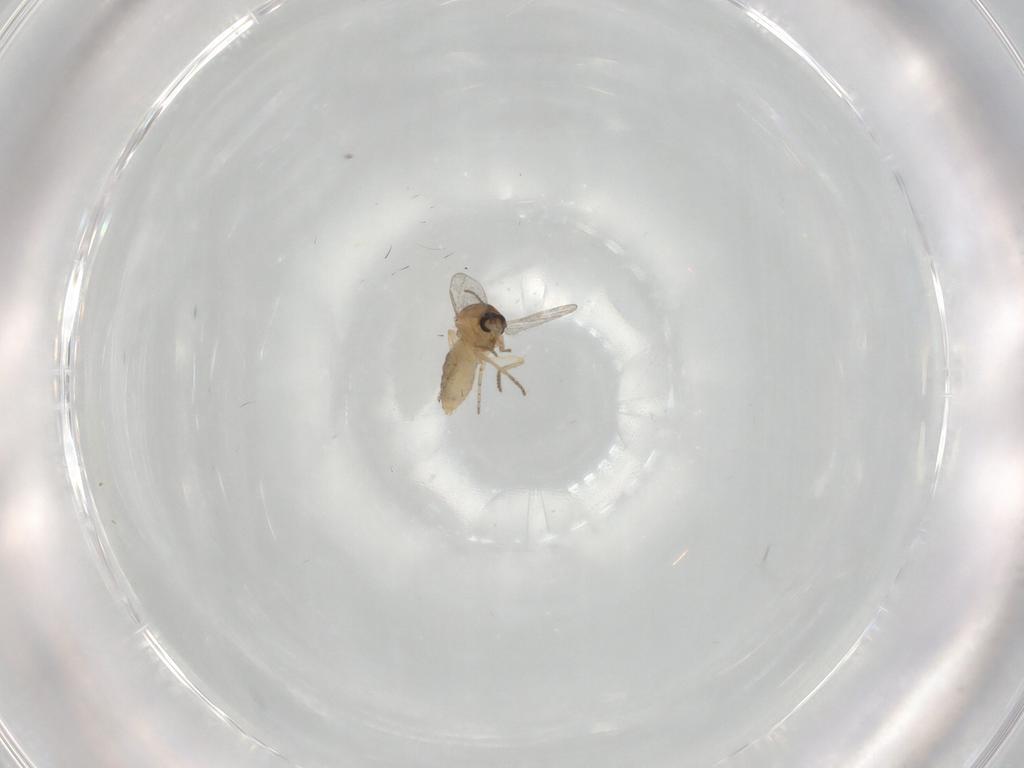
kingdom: Animalia
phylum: Arthropoda
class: Insecta
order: Diptera
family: Ceratopogonidae
